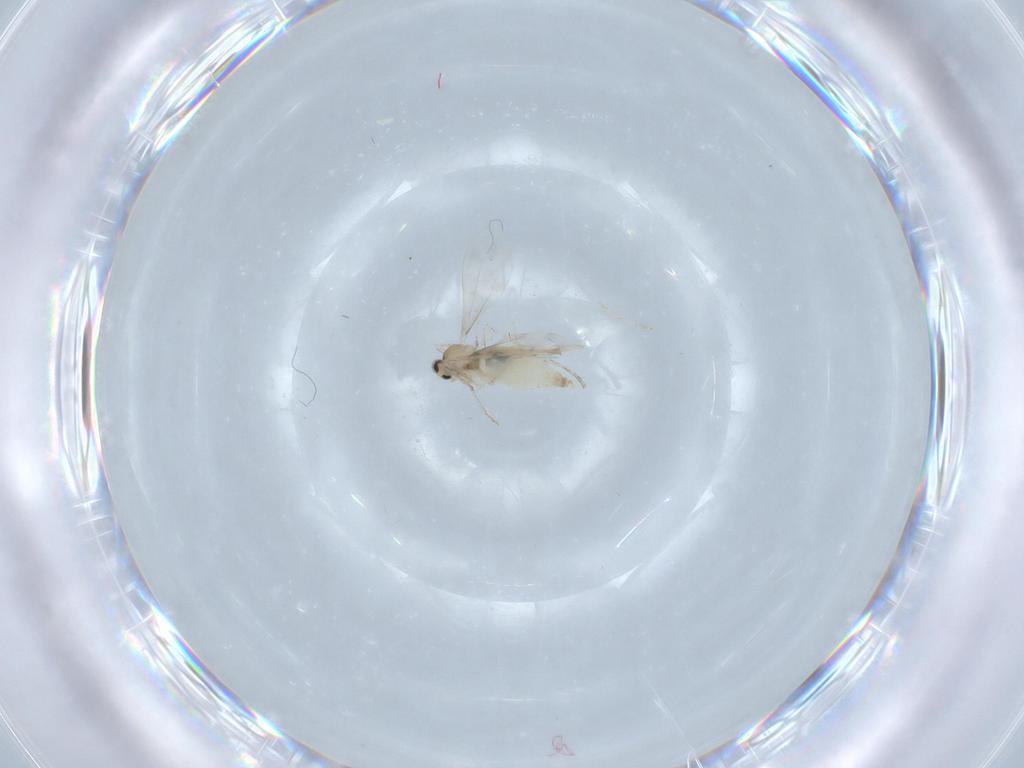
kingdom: Animalia
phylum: Arthropoda
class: Insecta
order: Diptera
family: Cecidomyiidae
